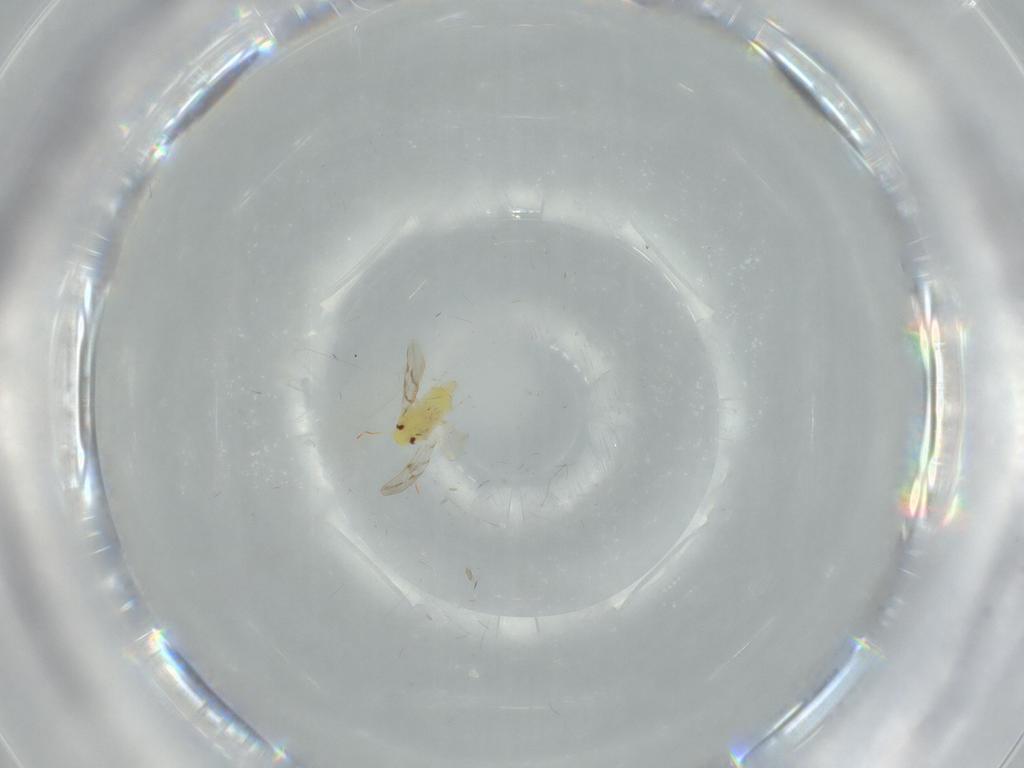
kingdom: Animalia
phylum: Arthropoda
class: Insecta
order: Hemiptera
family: Aleyrodidae
